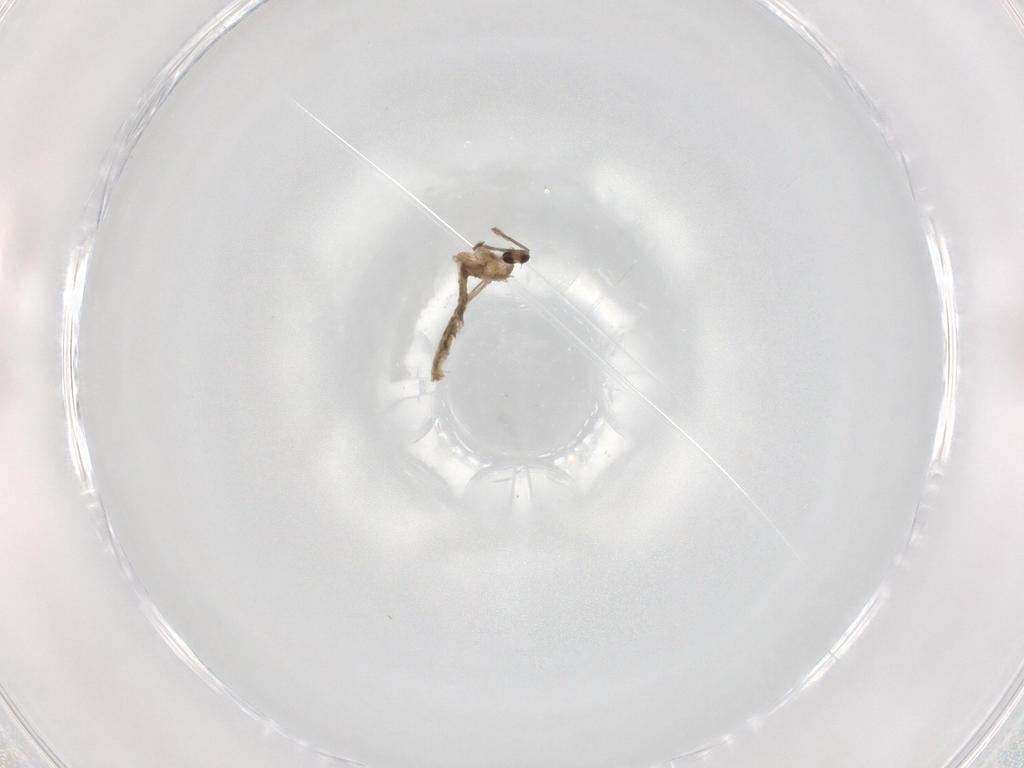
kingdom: Animalia
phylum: Arthropoda
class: Insecta
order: Diptera
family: Cecidomyiidae
